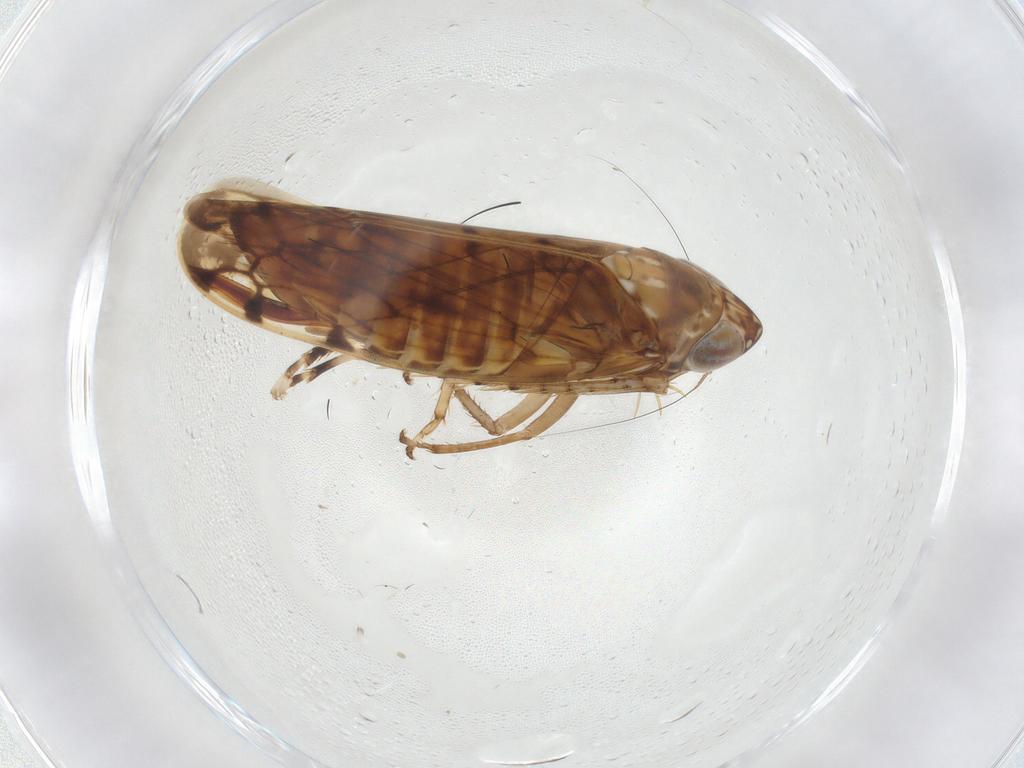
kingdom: Animalia
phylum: Arthropoda
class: Insecta
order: Hemiptera
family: Cicadellidae
